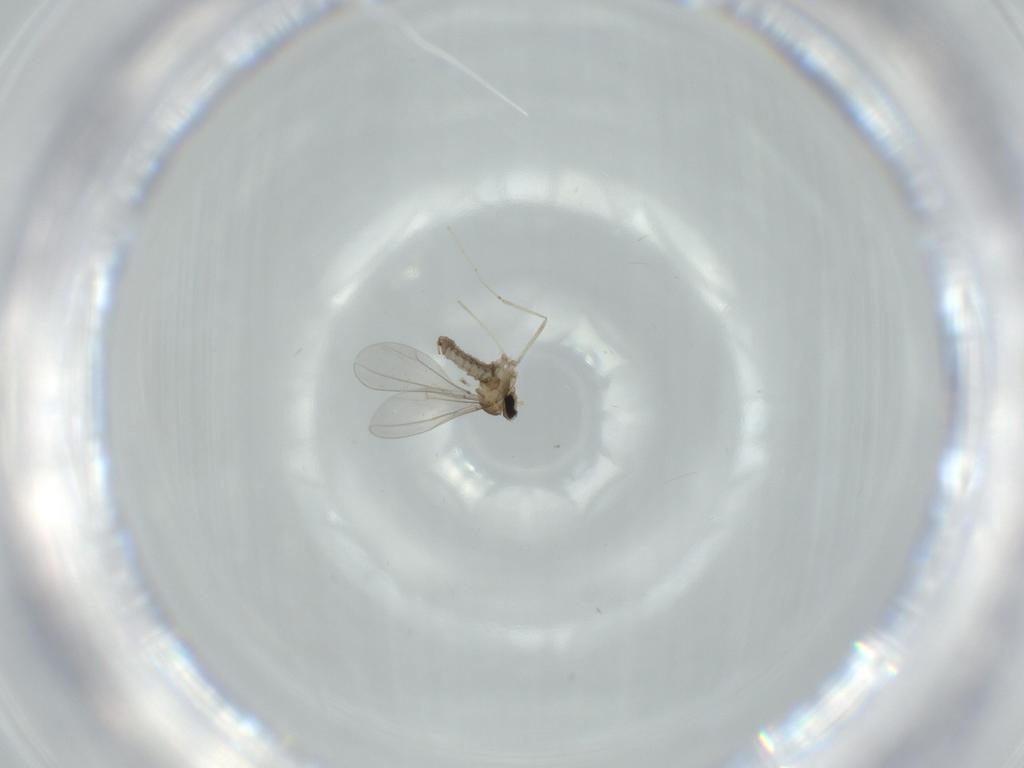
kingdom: Animalia
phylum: Arthropoda
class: Insecta
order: Diptera
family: Cecidomyiidae
